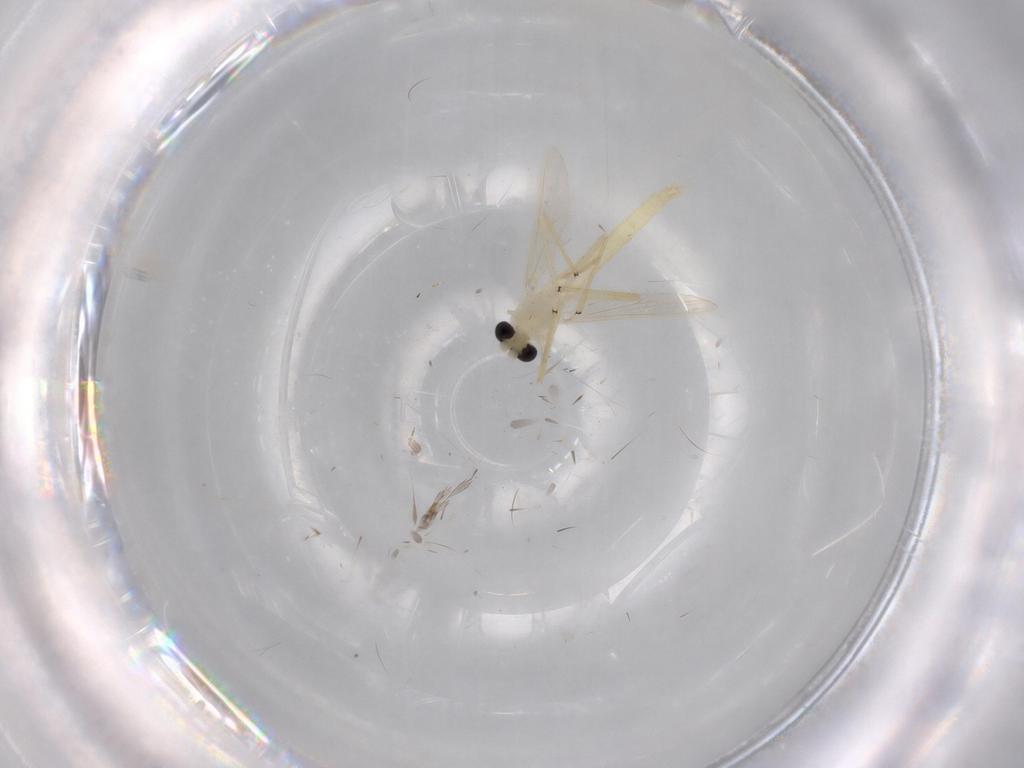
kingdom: Animalia
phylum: Arthropoda
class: Insecta
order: Diptera
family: Chironomidae
